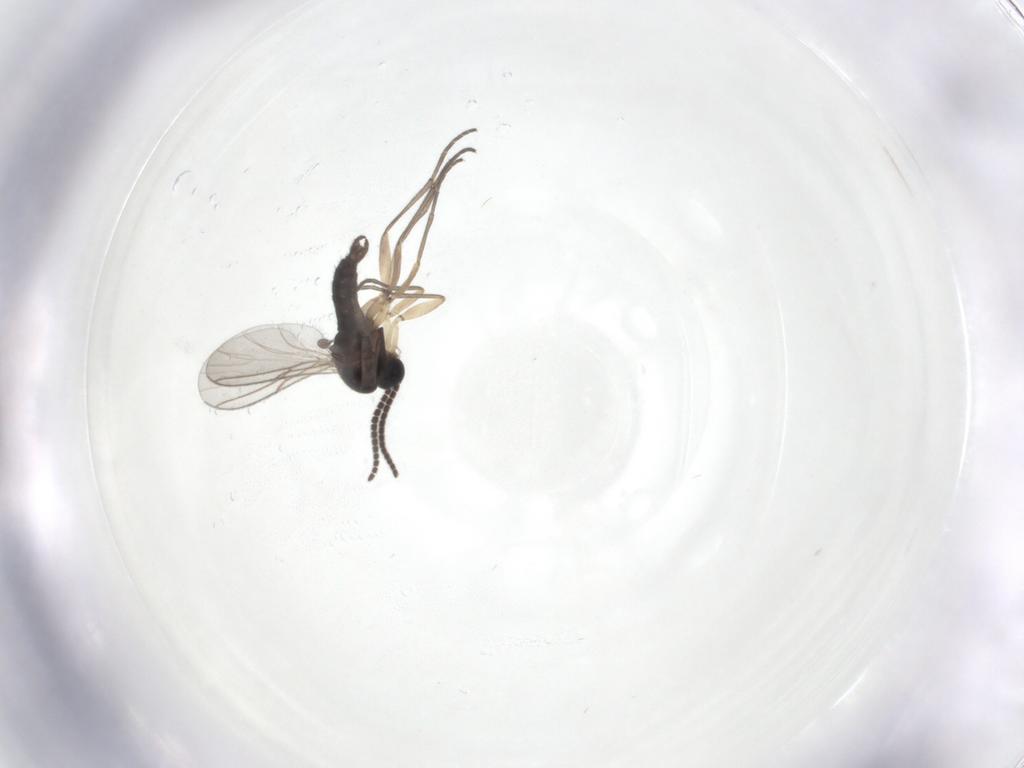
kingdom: Animalia
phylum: Arthropoda
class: Insecta
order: Diptera
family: Sciaridae
